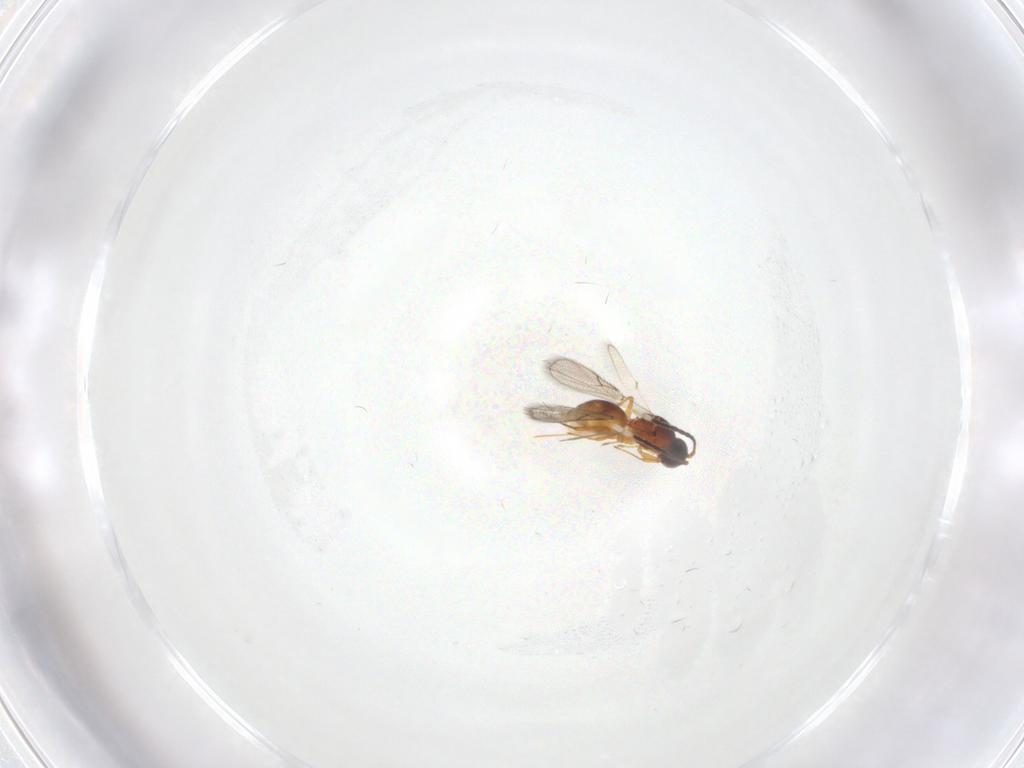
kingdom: Animalia
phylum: Arthropoda
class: Insecta
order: Hymenoptera
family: Figitidae
